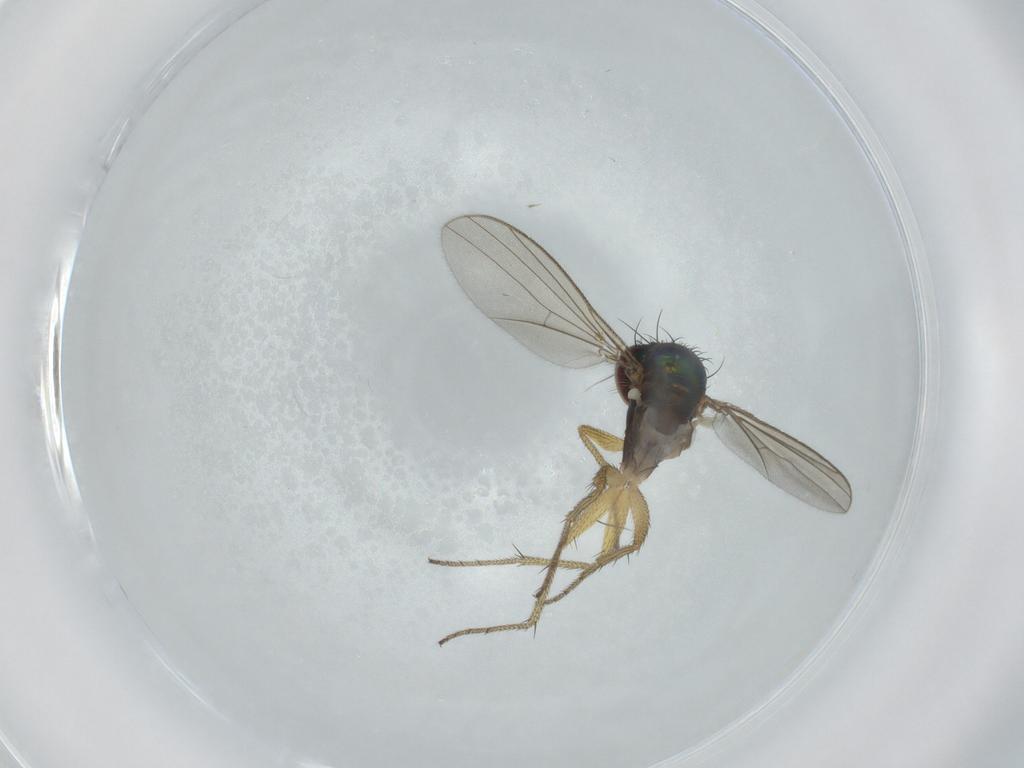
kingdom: Animalia
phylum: Arthropoda
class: Insecta
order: Diptera
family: Dolichopodidae
